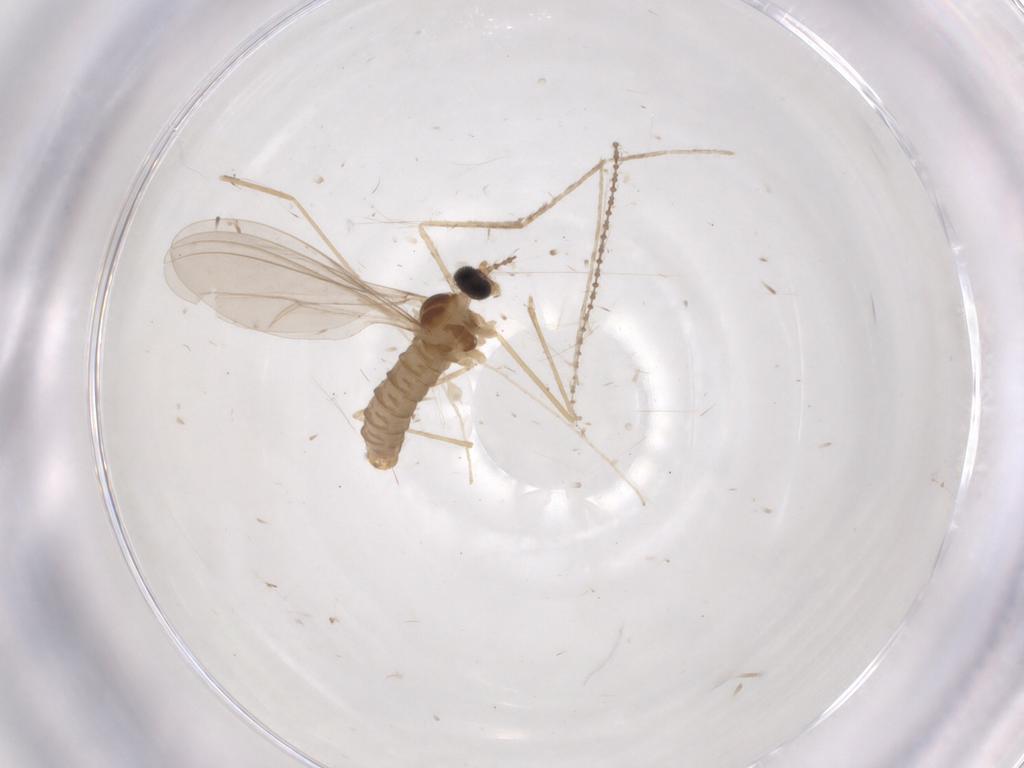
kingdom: Animalia
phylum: Arthropoda
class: Insecta
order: Diptera
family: Cecidomyiidae
